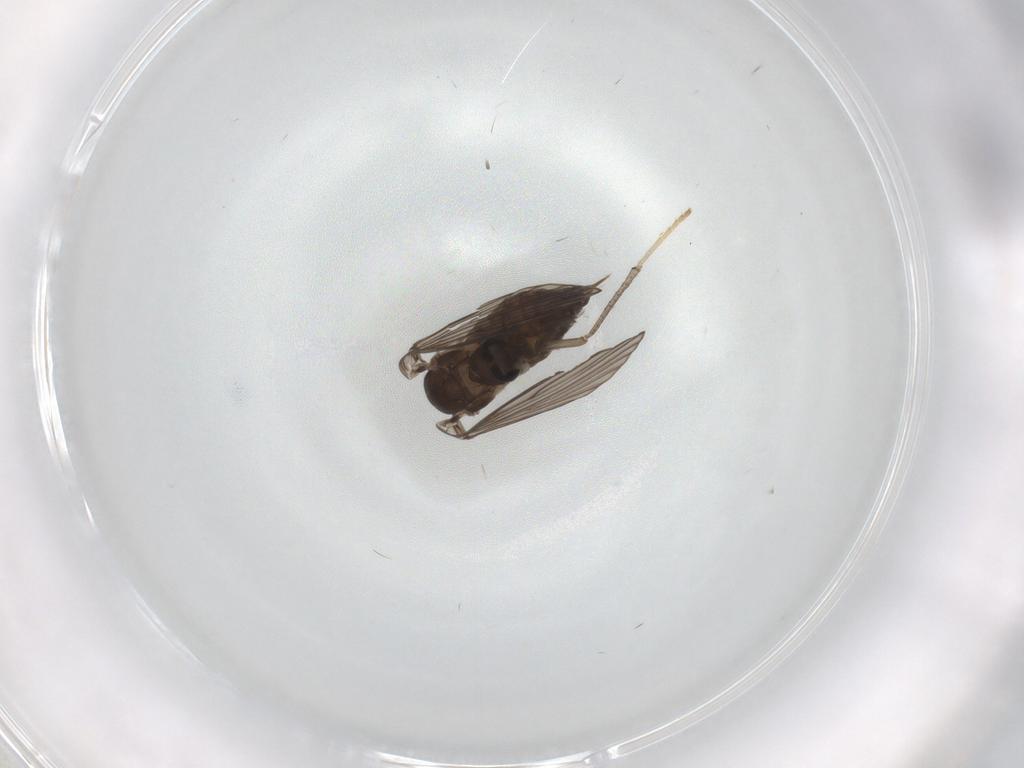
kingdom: Animalia
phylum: Arthropoda
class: Insecta
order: Diptera
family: Psychodidae
